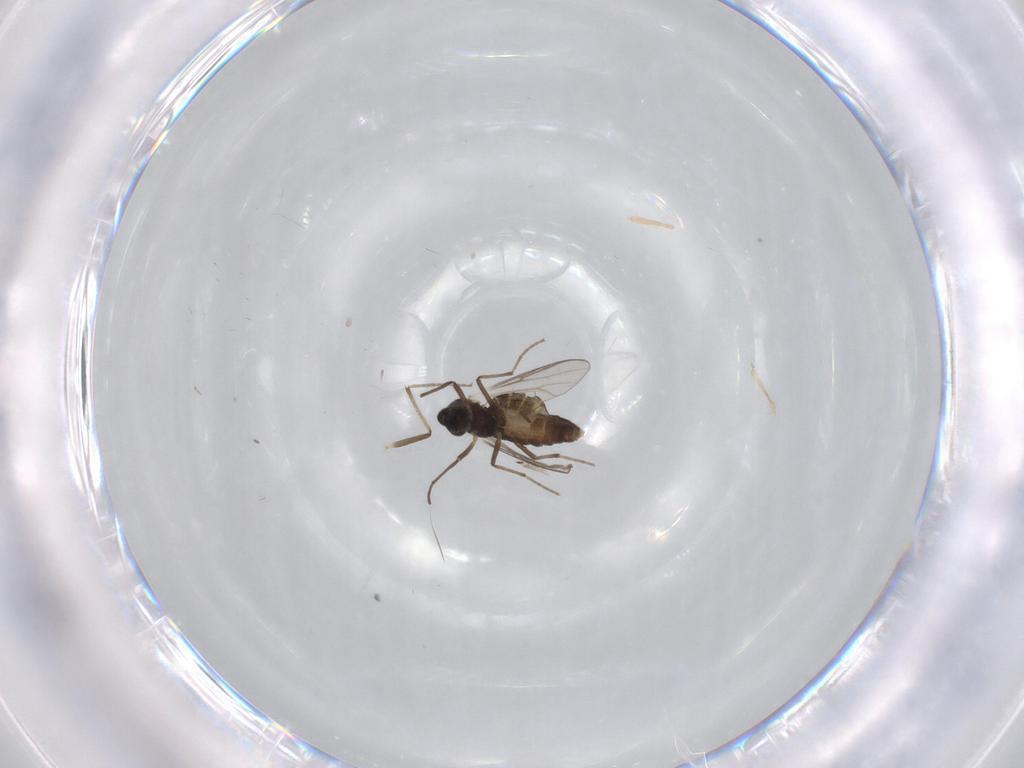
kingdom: Animalia
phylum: Arthropoda
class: Insecta
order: Diptera
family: Chironomidae
